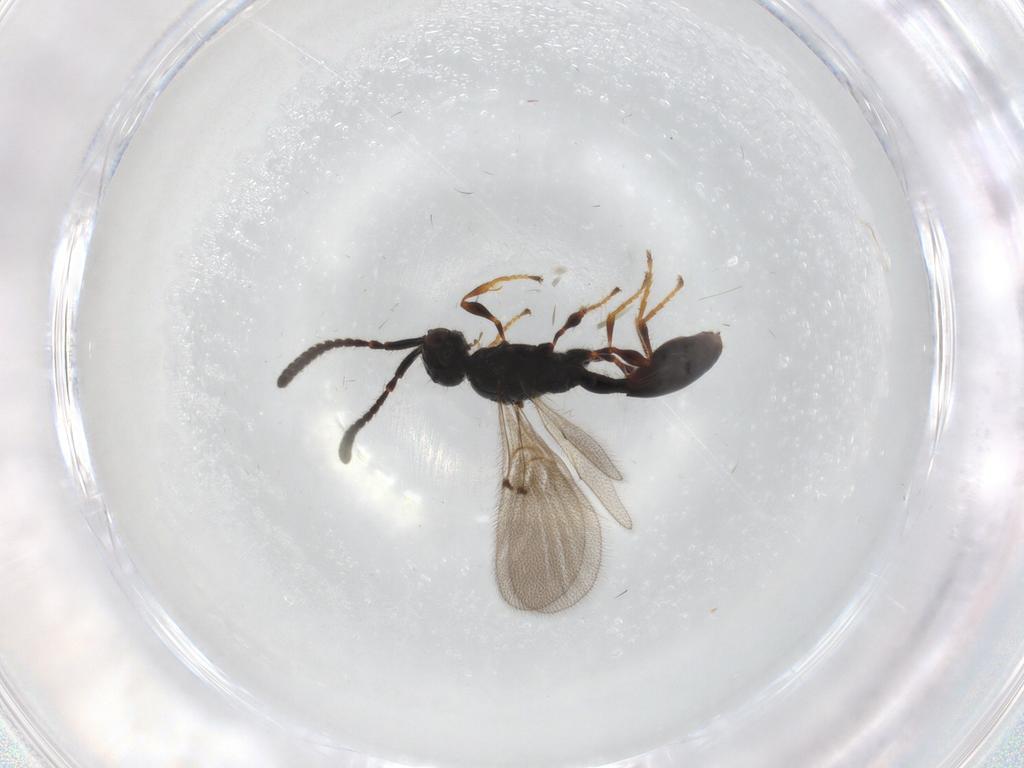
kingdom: Animalia
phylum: Arthropoda
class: Insecta
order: Hymenoptera
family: Diapriidae
